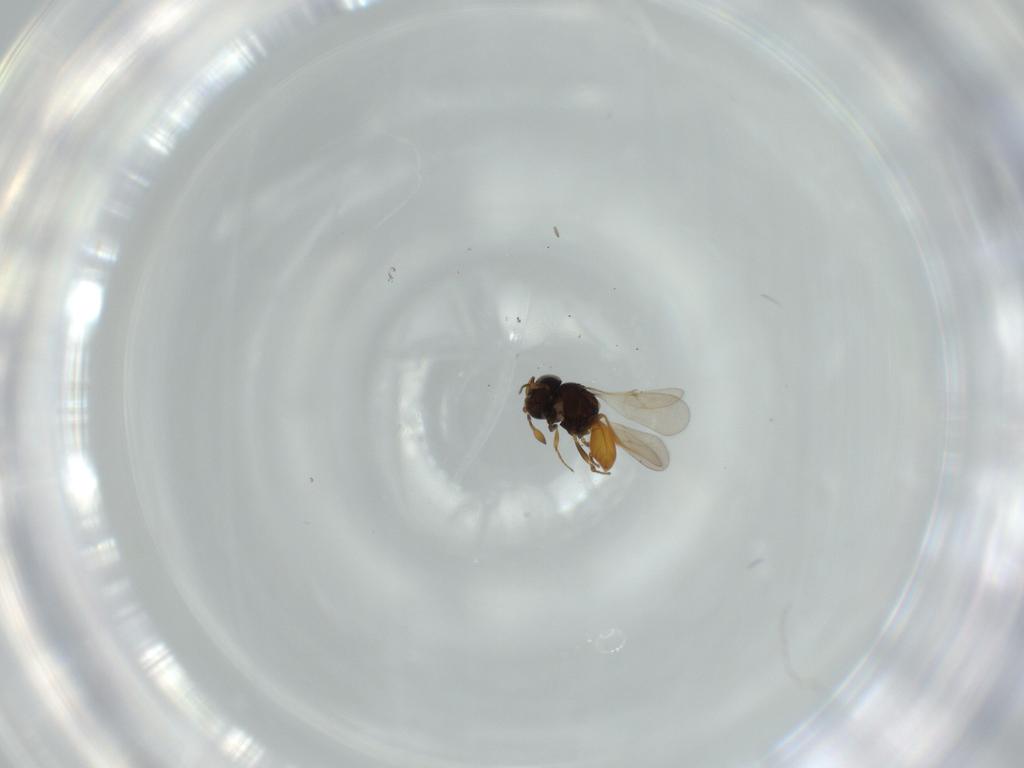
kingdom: Animalia
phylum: Arthropoda
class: Insecta
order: Hymenoptera
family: Scelionidae
